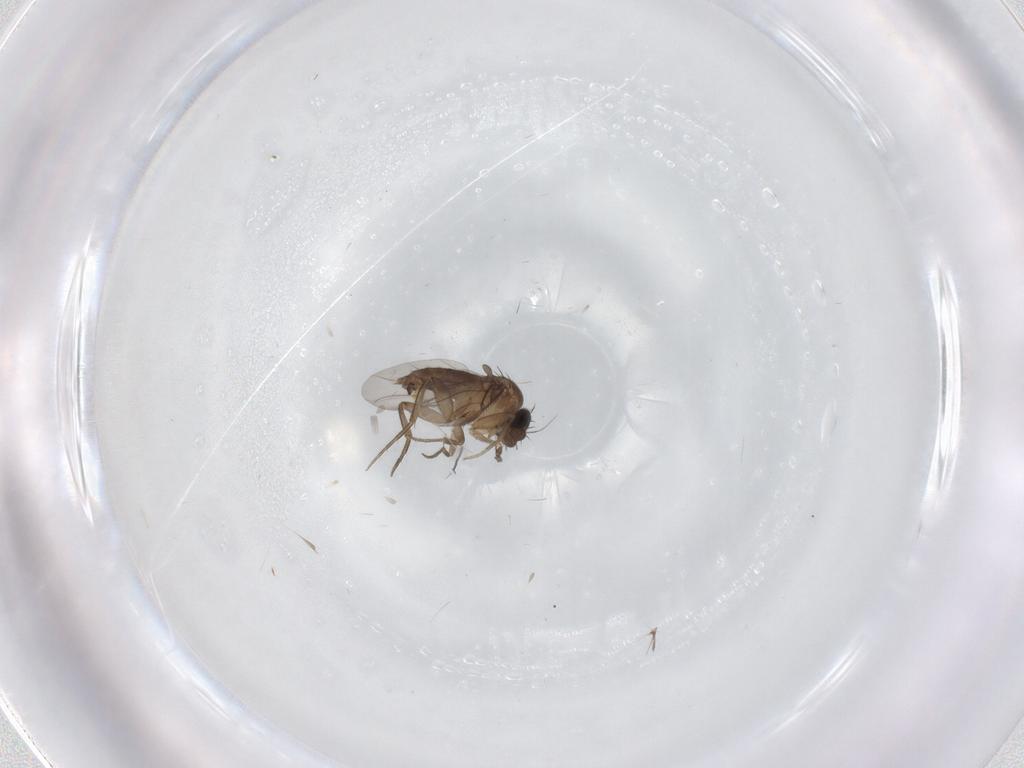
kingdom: Animalia
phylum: Arthropoda
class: Insecta
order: Diptera
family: Phoridae
